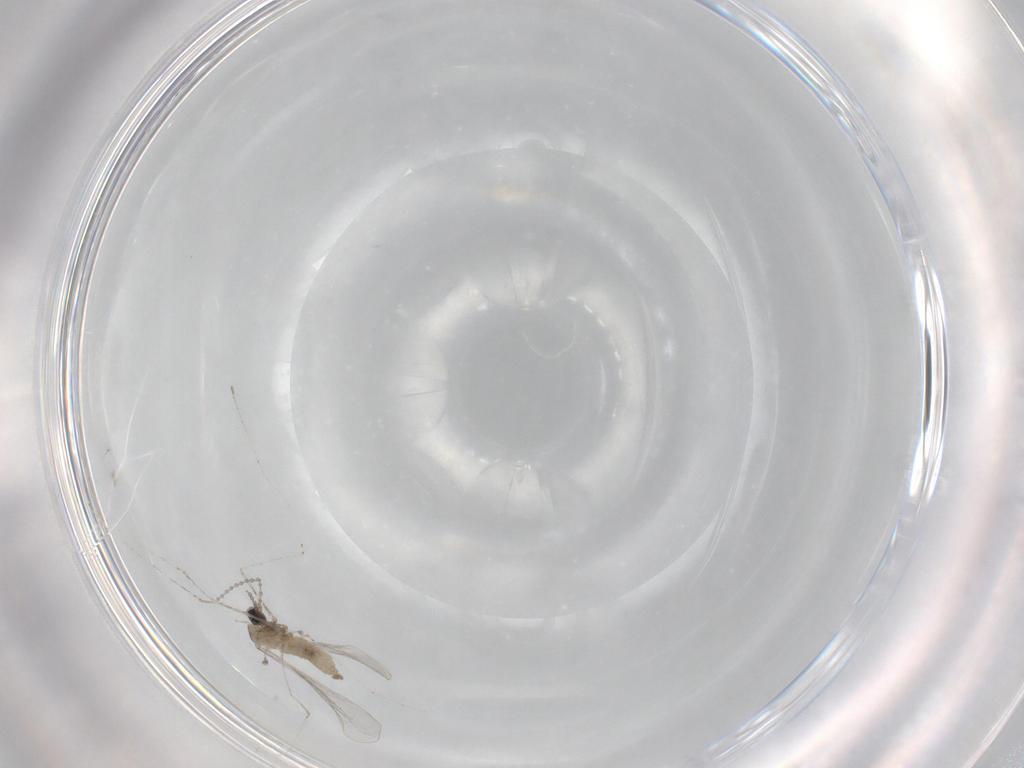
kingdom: Animalia
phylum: Arthropoda
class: Insecta
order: Diptera
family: Cecidomyiidae
